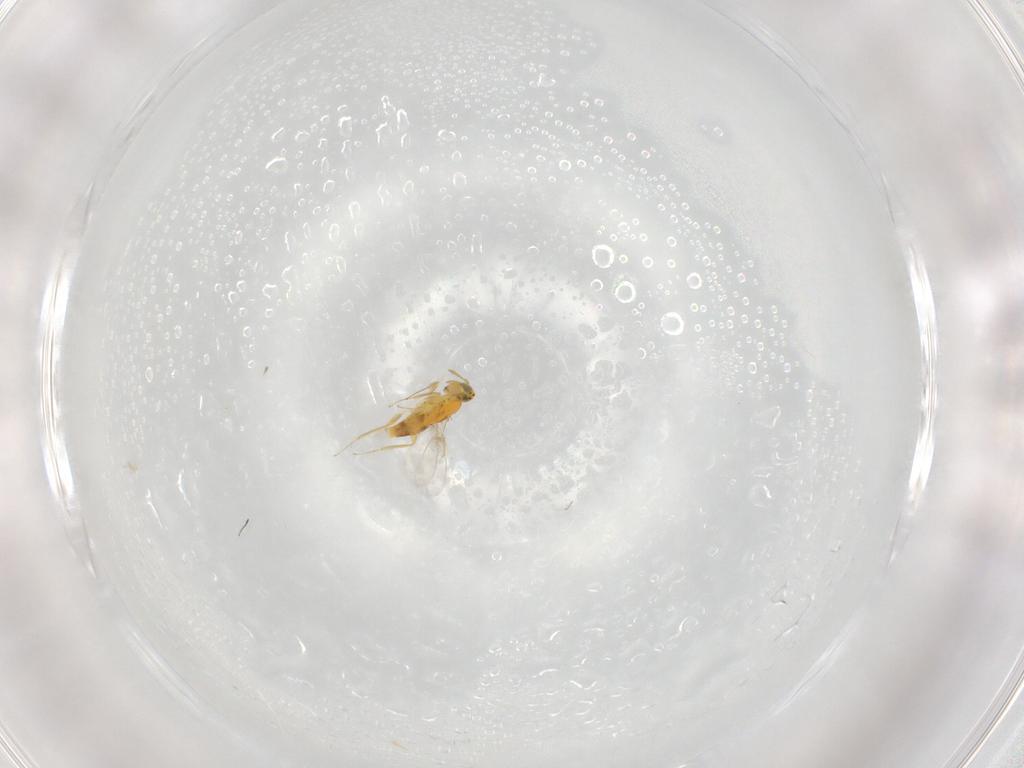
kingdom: Animalia
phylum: Arthropoda
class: Insecta
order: Hymenoptera
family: Aphelinidae
